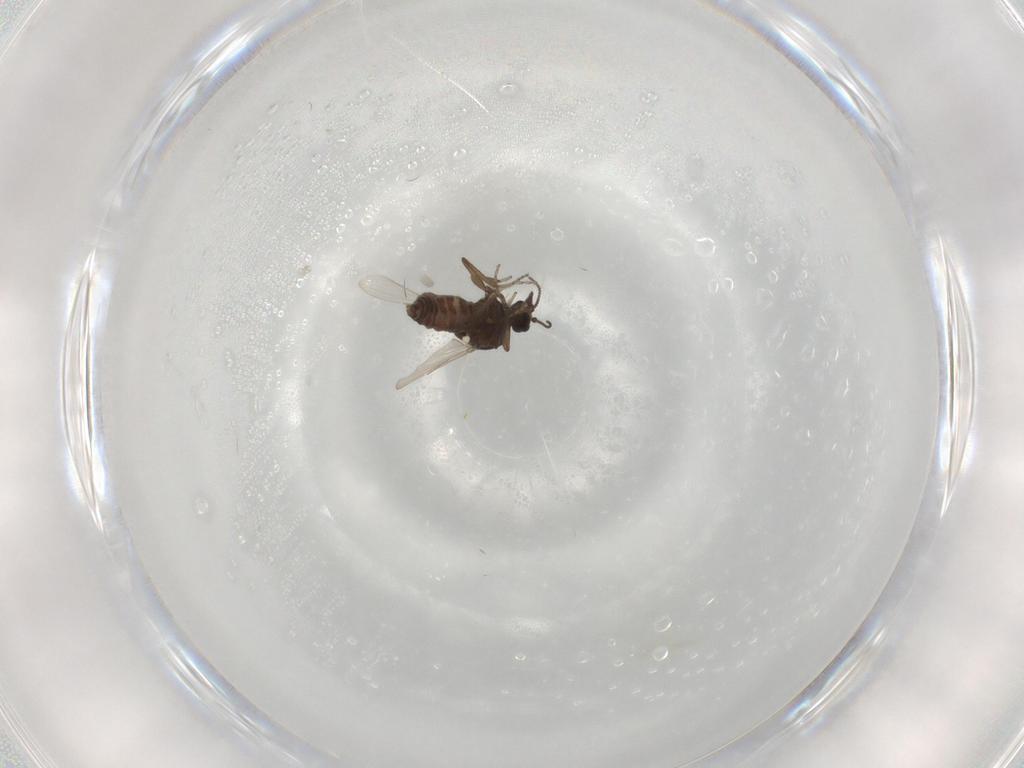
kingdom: Animalia
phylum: Arthropoda
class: Insecta
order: Diptera
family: Ceratopogonidae
